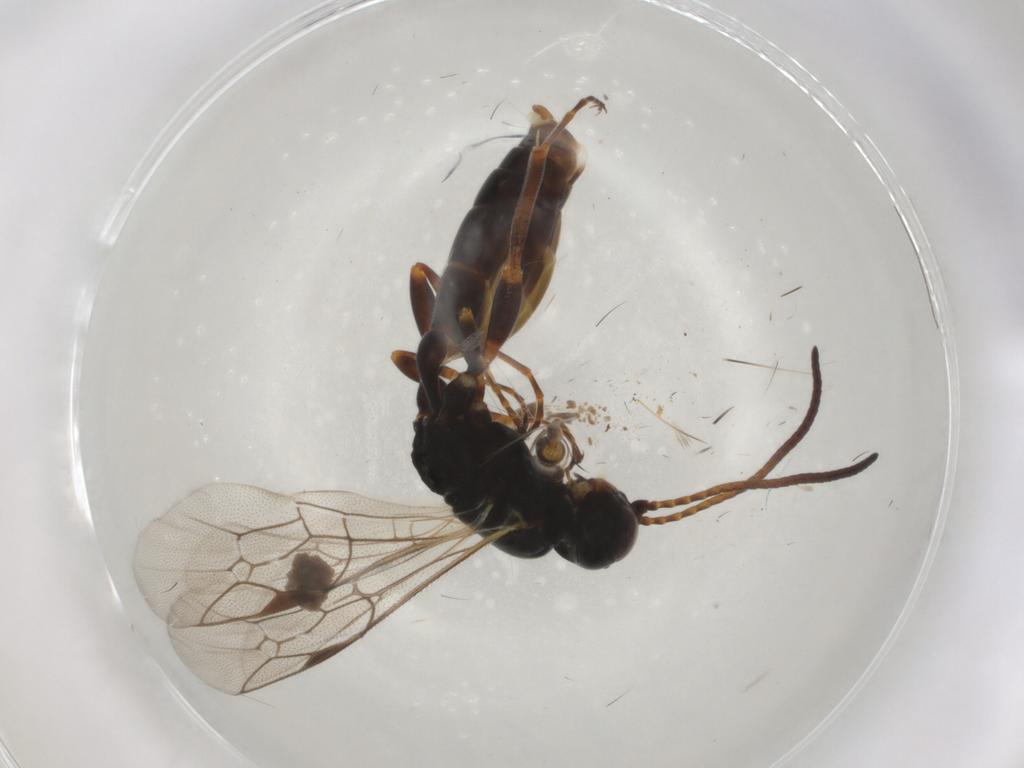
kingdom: Animalia
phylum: Arthropoda
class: Insecta
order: Hymenoptera
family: Ichneumonidae
